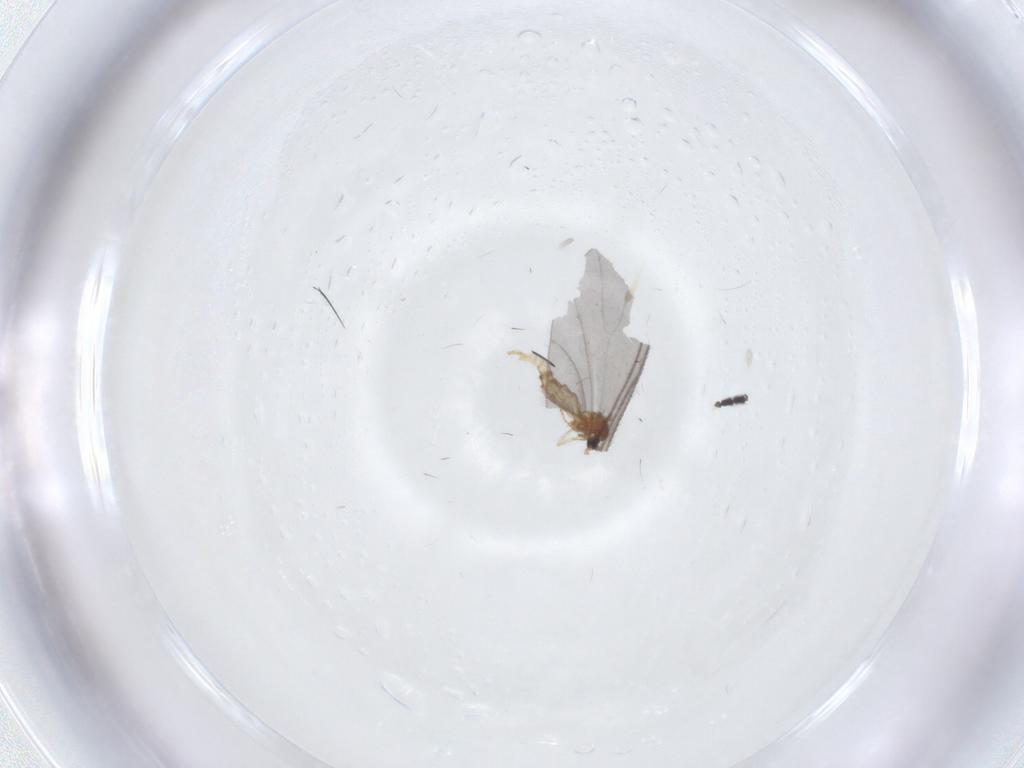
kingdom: Animalia
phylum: Arthropoda
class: Insecta
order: Diptera
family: Cecidomyiidae
